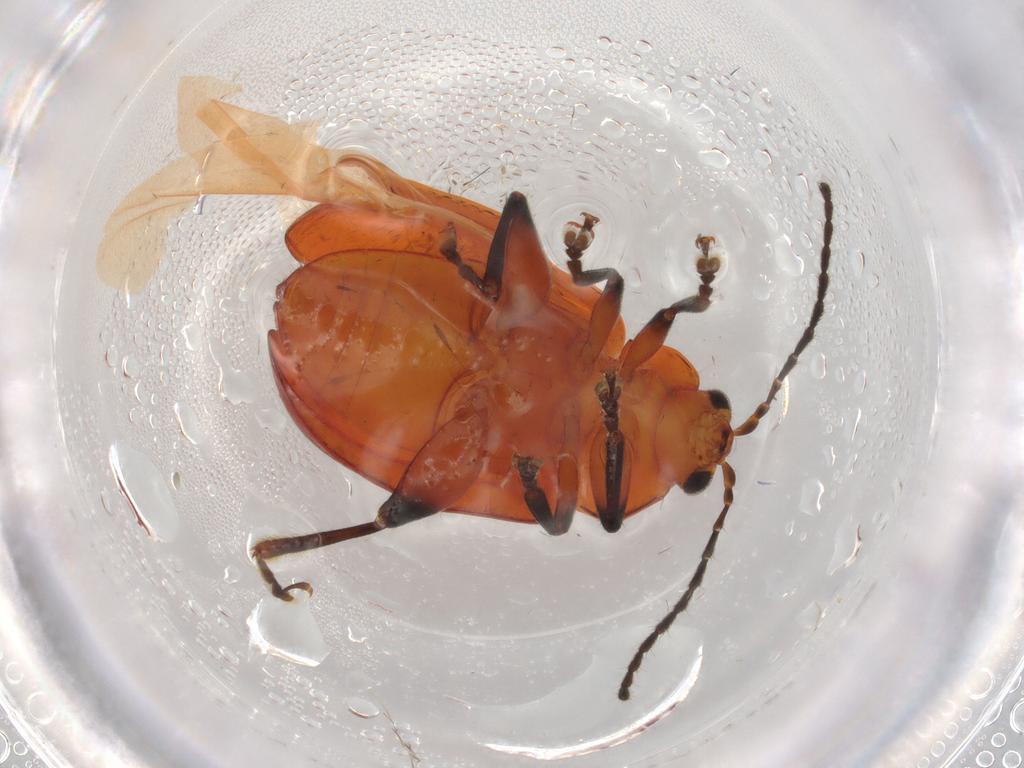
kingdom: Animalia
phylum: Arthropoda
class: Insecta
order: Coleoptera
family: Chrysomelidae
